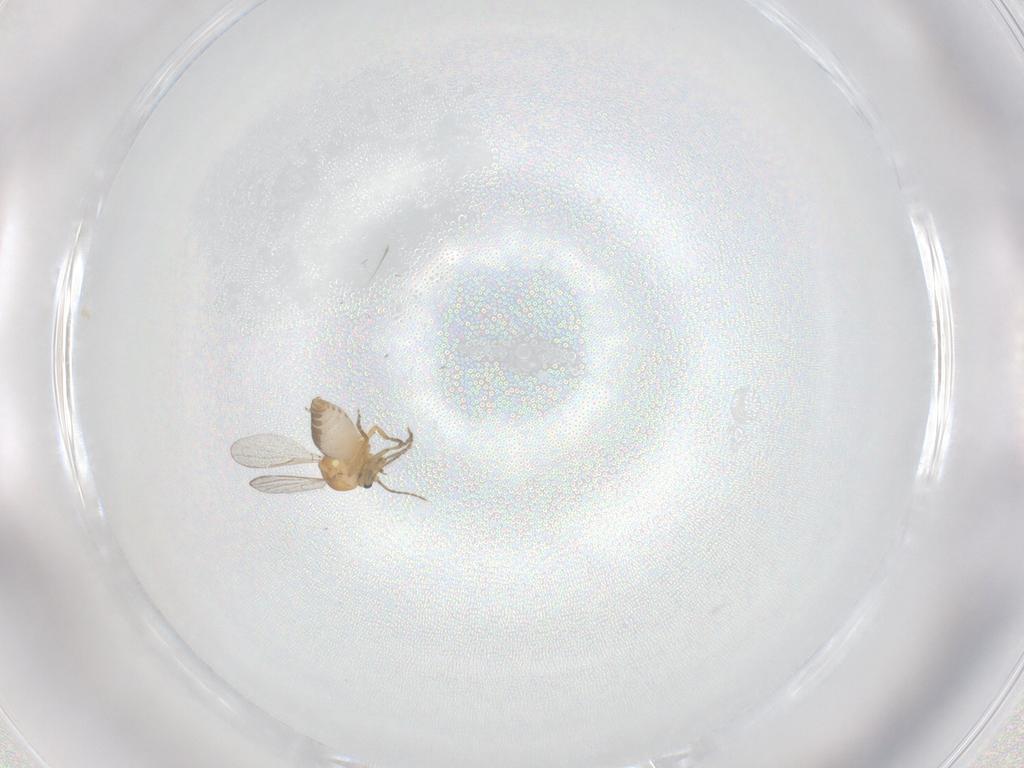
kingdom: Animalia
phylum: Arthropoda
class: Insecta
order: Diptera
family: Ceratopogonidae
